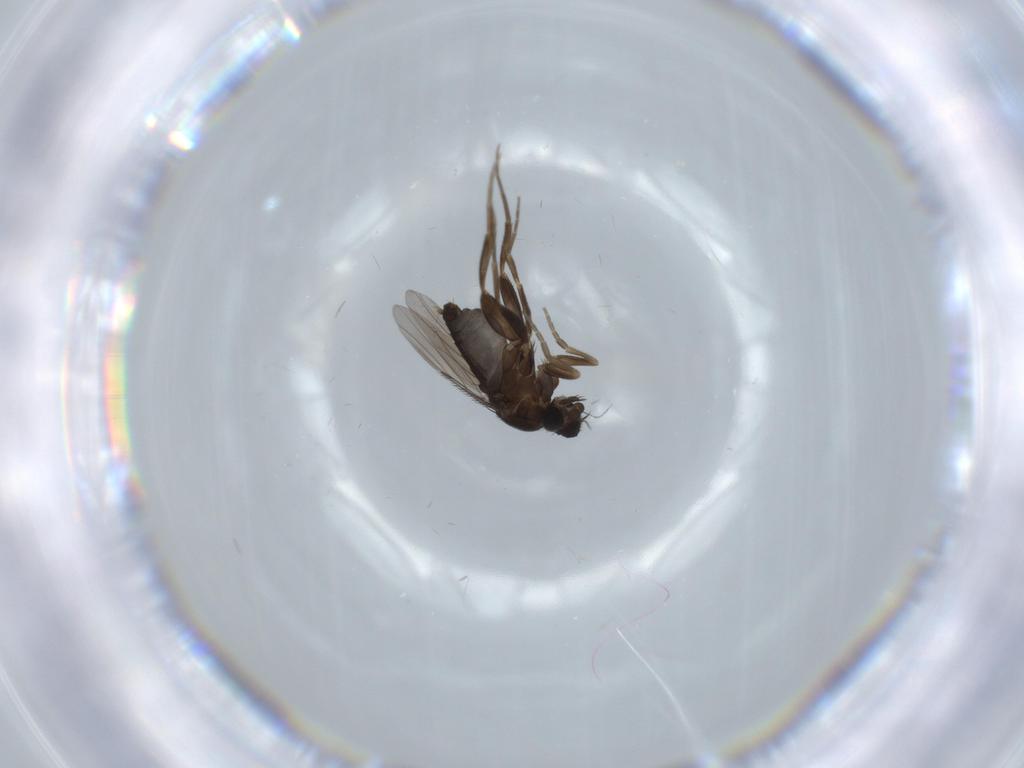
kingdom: Animalia
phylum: Arthropoda
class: Insecta
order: Diptera
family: Cecidomyiidae
